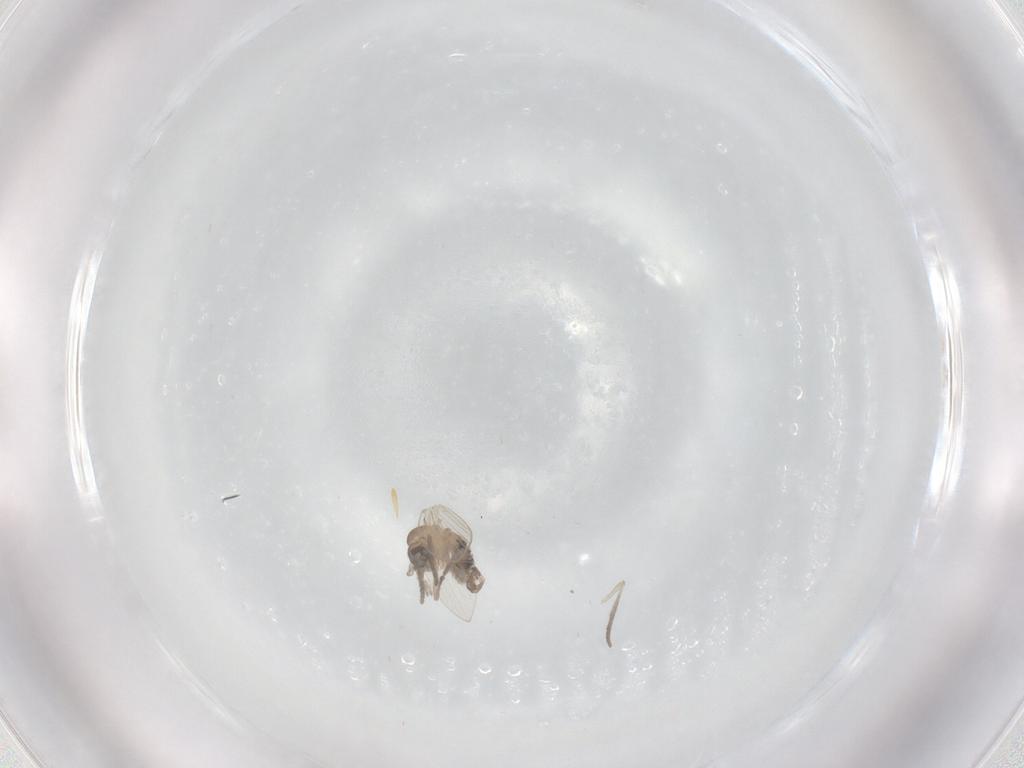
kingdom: Animalia
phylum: Arthropoda
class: Insecta
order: Diptera
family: Psychodidae
